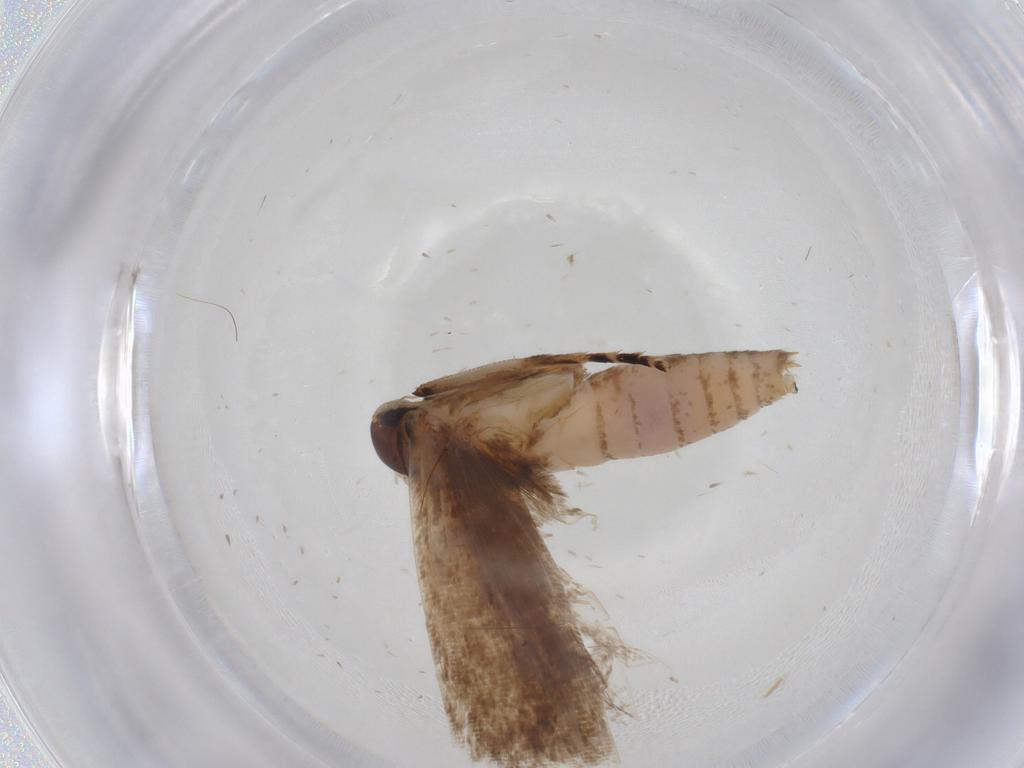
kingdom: Animalia
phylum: Arthropoda
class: Insecta
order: Lepidoptera
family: Gelechiidae
